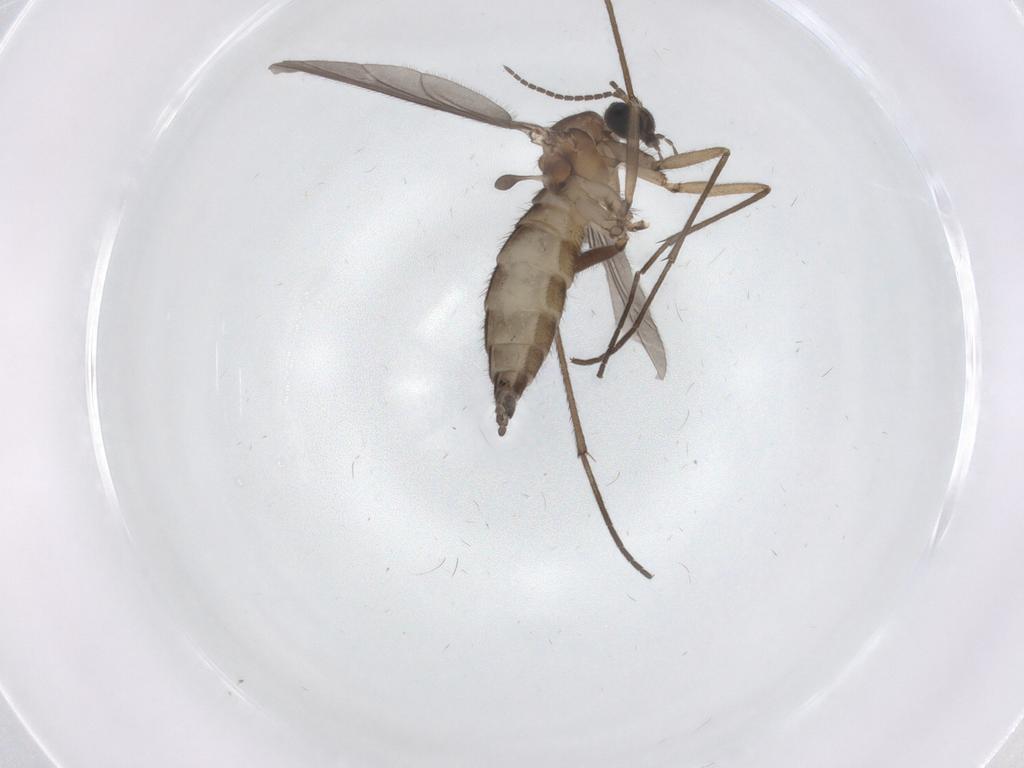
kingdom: Animalia
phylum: Arthropoda
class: Insecta
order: Diptera
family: Sciaridae
